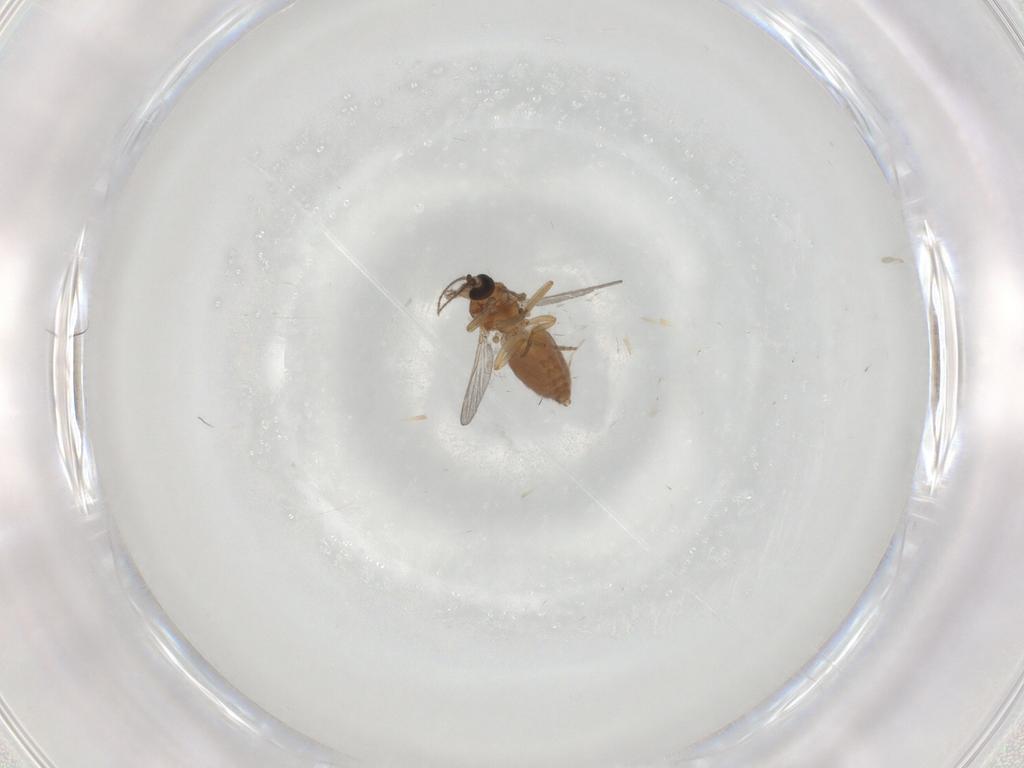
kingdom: Animalia
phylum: Arthropoda
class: Insecta
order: Diptera
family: Ceratopogonidae
